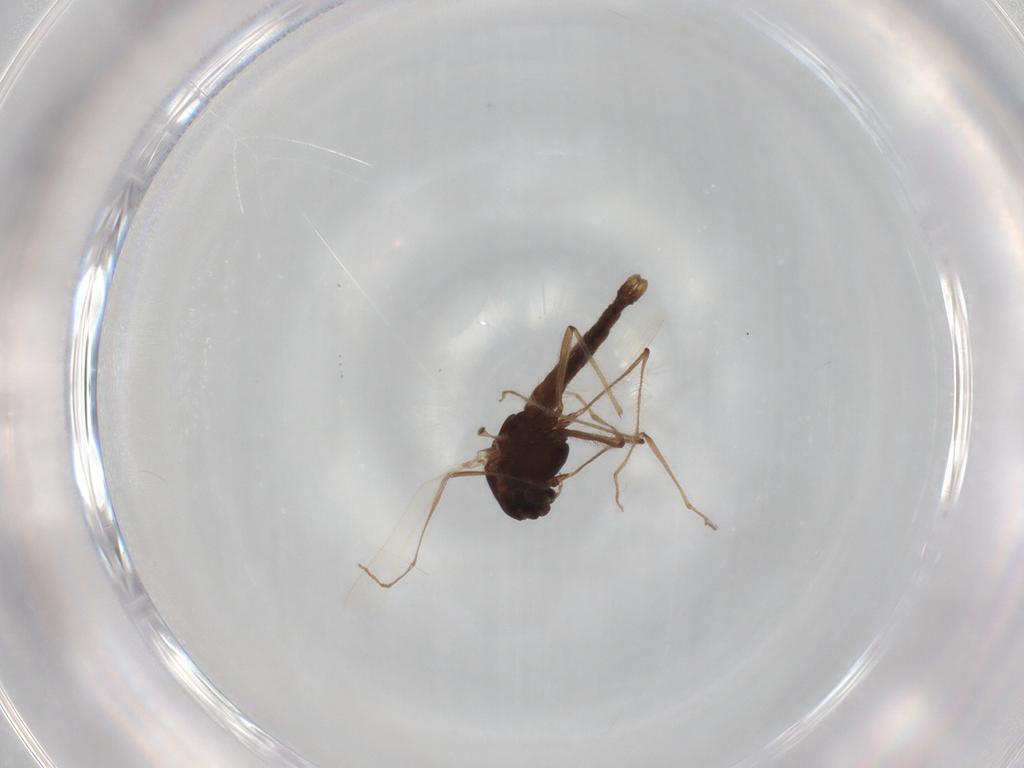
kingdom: Animalia
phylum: Arthropoda
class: Insecta
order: Diptera
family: Chironomidae
